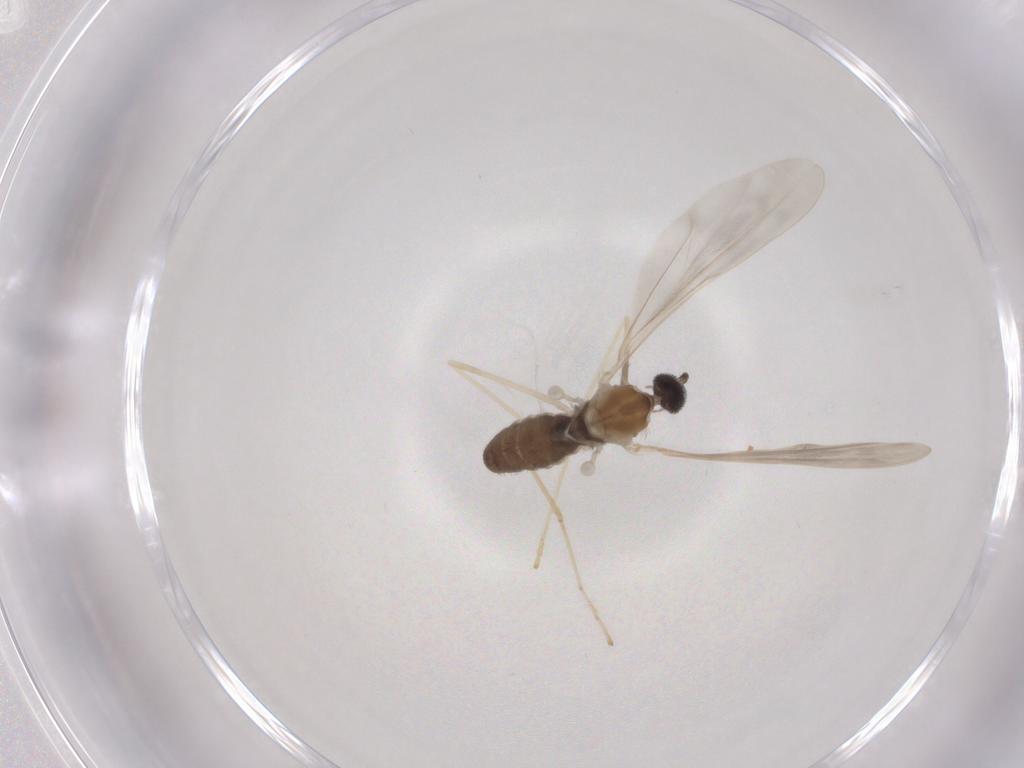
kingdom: Animalia
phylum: Arthropoda
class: Insecta
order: Diptera
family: Cecidomyiidae
